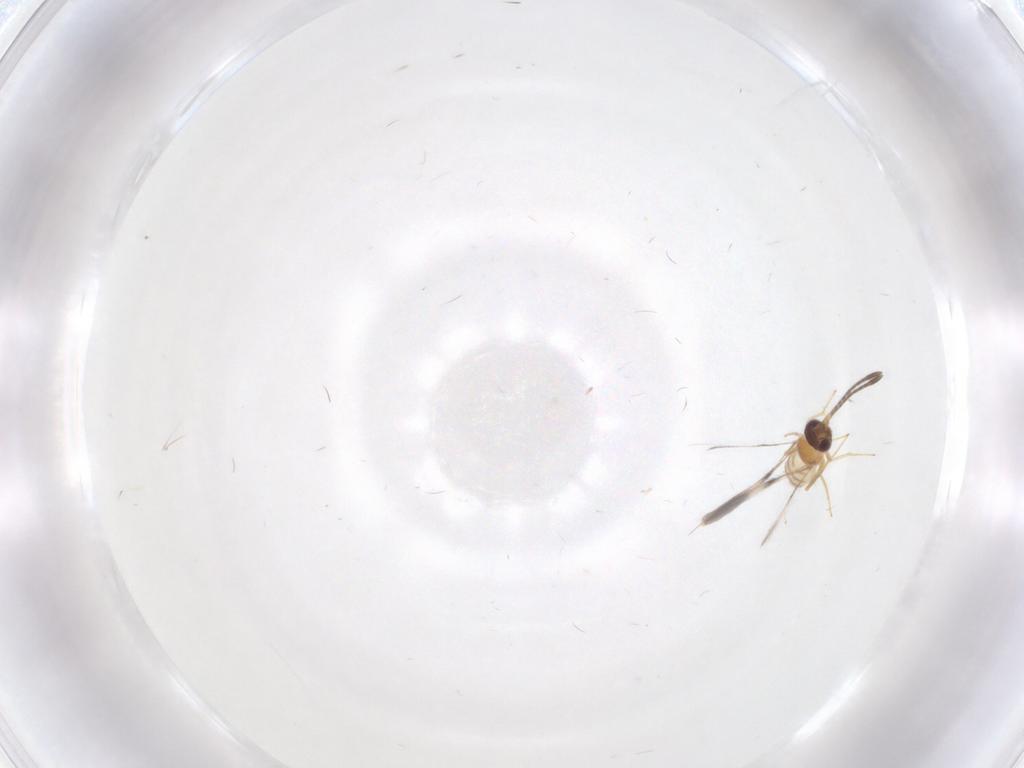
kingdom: Animalia
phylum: Arthropoda
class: Insecta
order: Hymenoptera
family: Mymaridae
